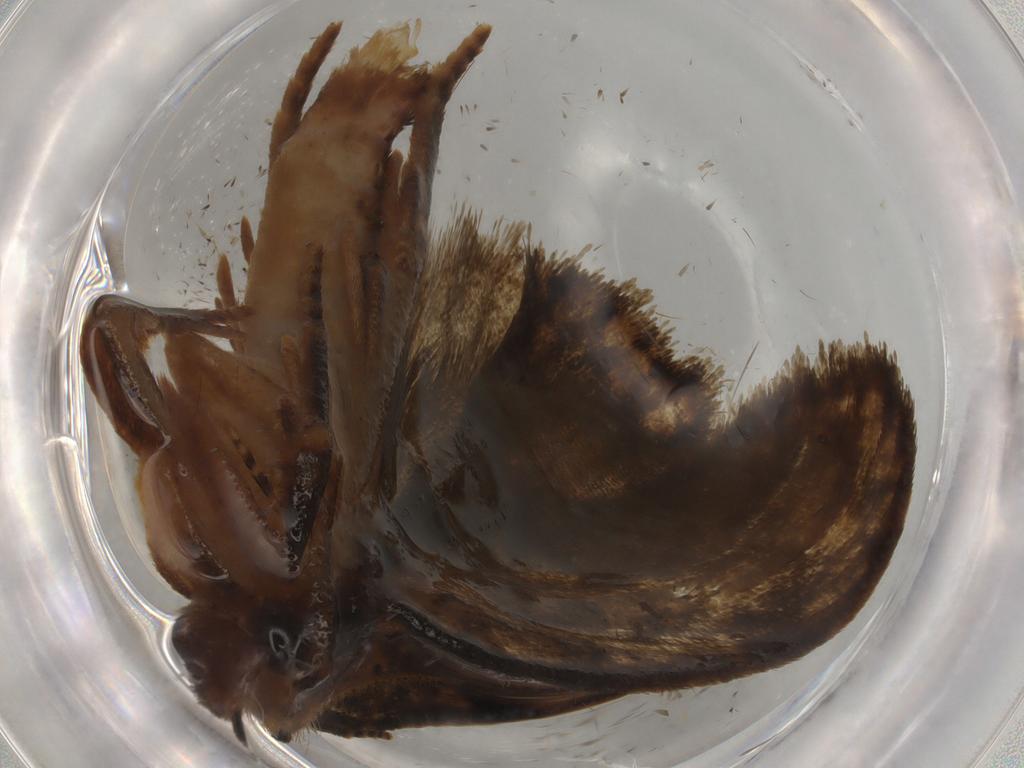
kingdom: Animalia
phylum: Arthropoda
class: Insecta
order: Lepidoptera
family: Geometridae
